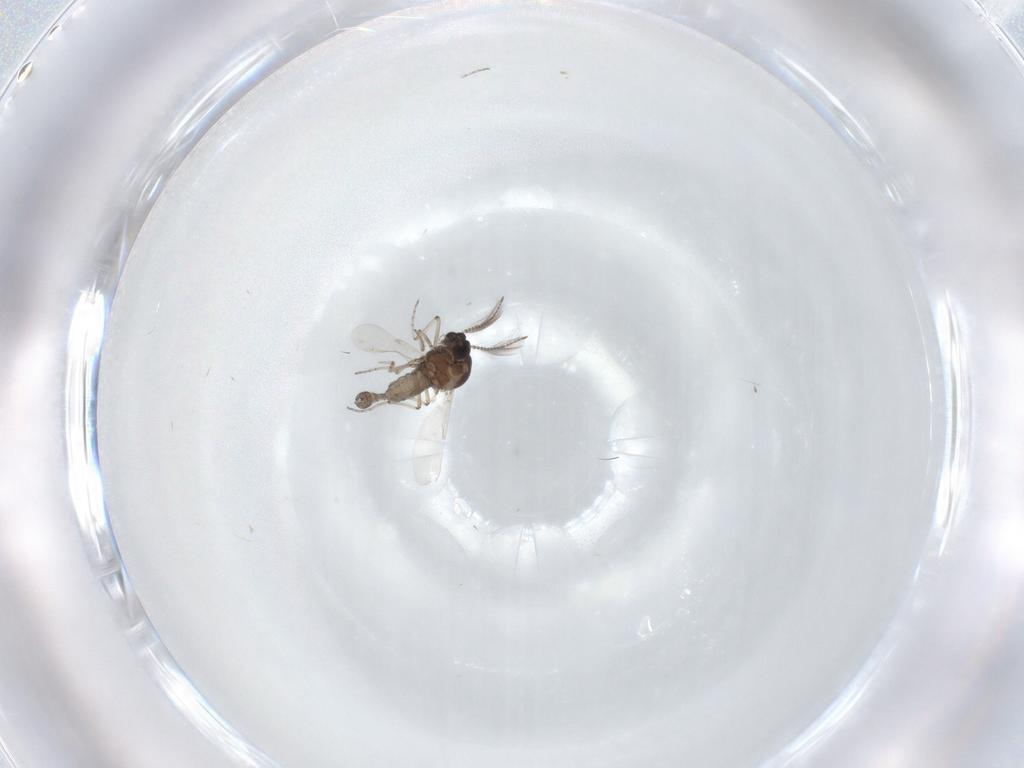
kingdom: Animalia
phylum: Arthropoda
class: Insecta
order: Diptera
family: Ceratopogonidae
